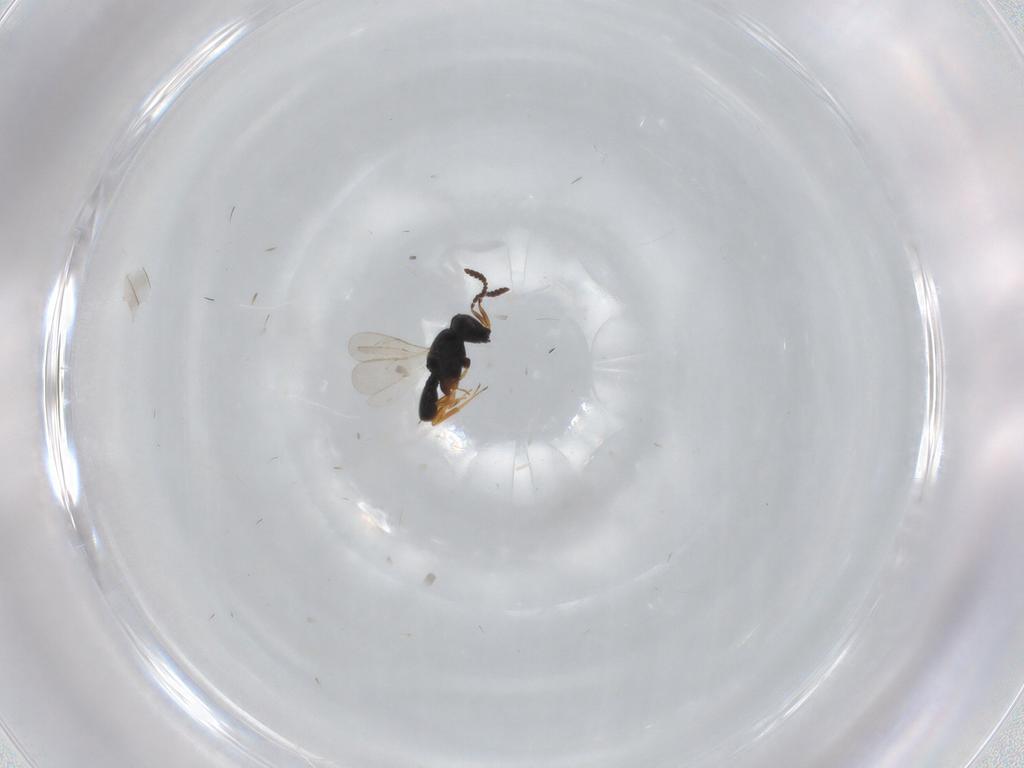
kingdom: Animalia
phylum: Arthropoda
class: Insecta
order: Hymenoptera
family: Scelionidae
